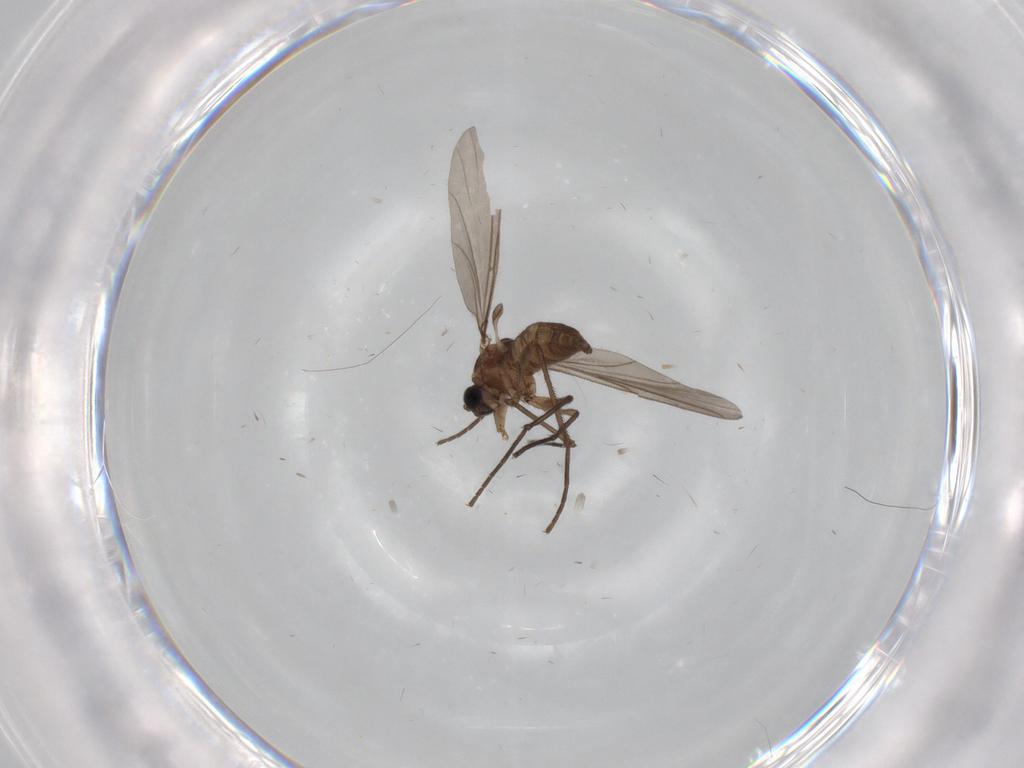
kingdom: Animalia
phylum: Arthropoda
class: Insecta
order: Diptera
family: Sciaridae
